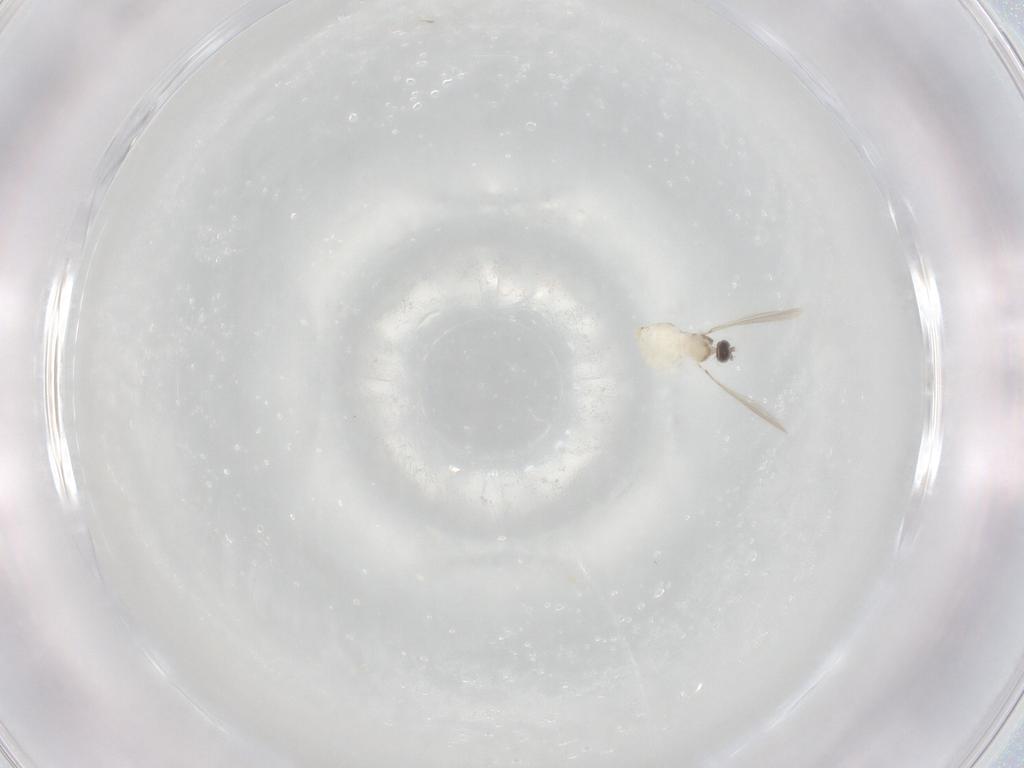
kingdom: Animalia
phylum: Arthropoda
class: Insecta
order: Diptera
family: Cecidomyiidae
